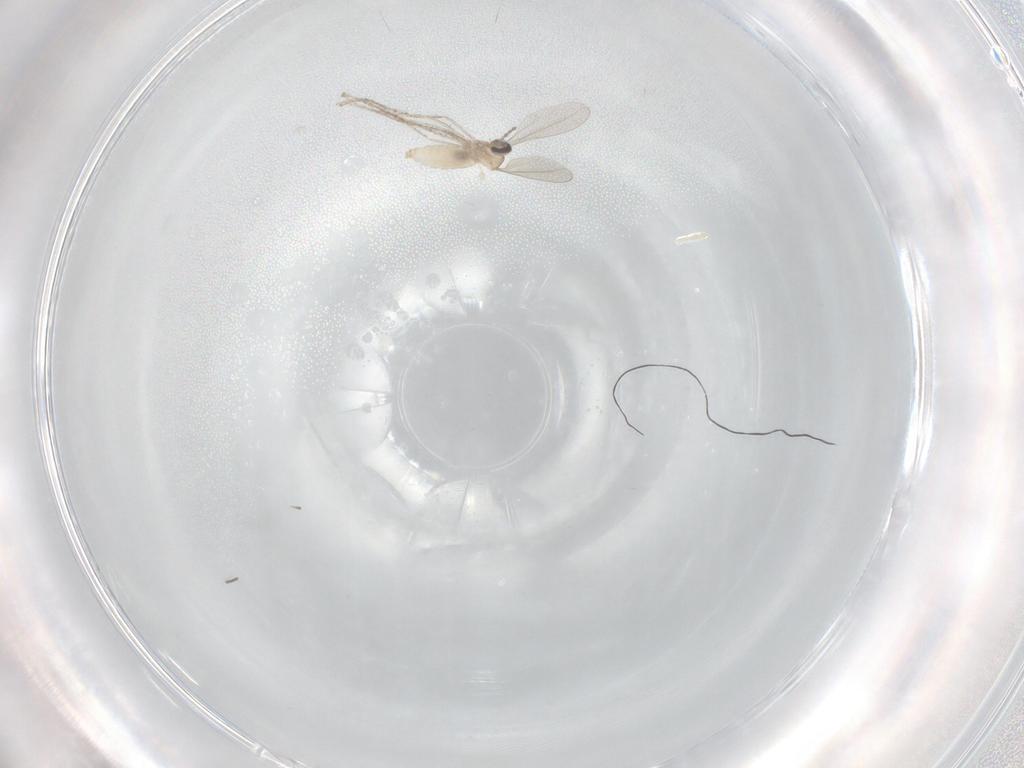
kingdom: Animalia
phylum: Arthropoda
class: Insecta
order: Diptera
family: Cecidomyiidae
